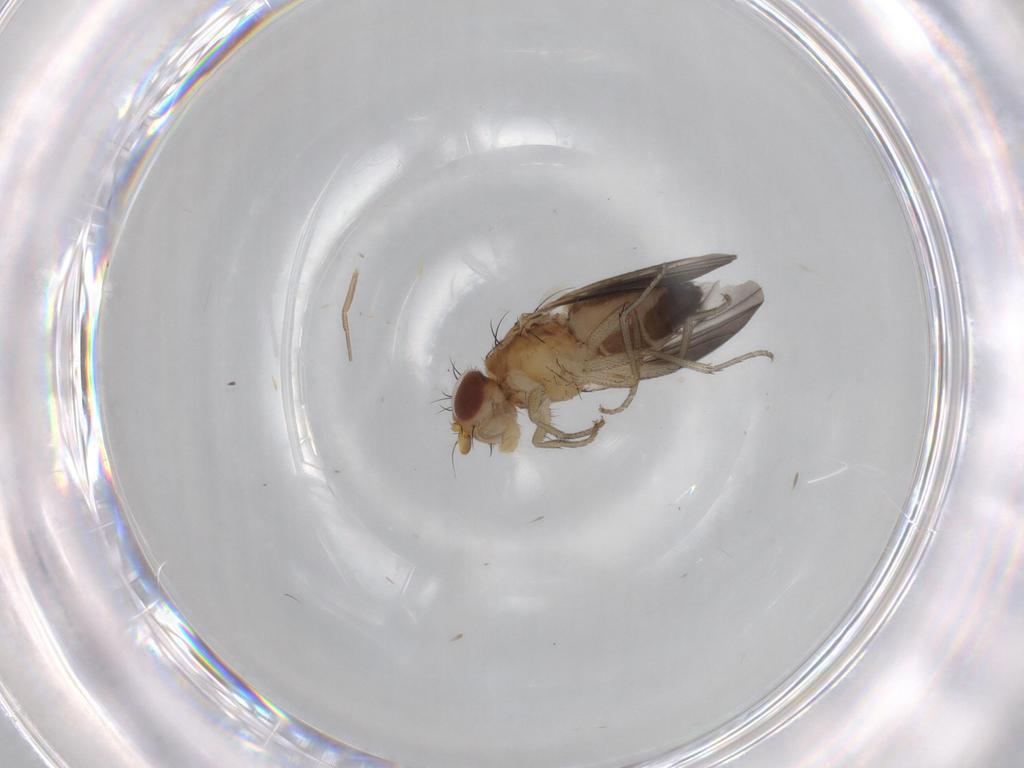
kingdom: Animalia
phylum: Arthropoda
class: Insecta
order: Diptera
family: Heleomyzidae
